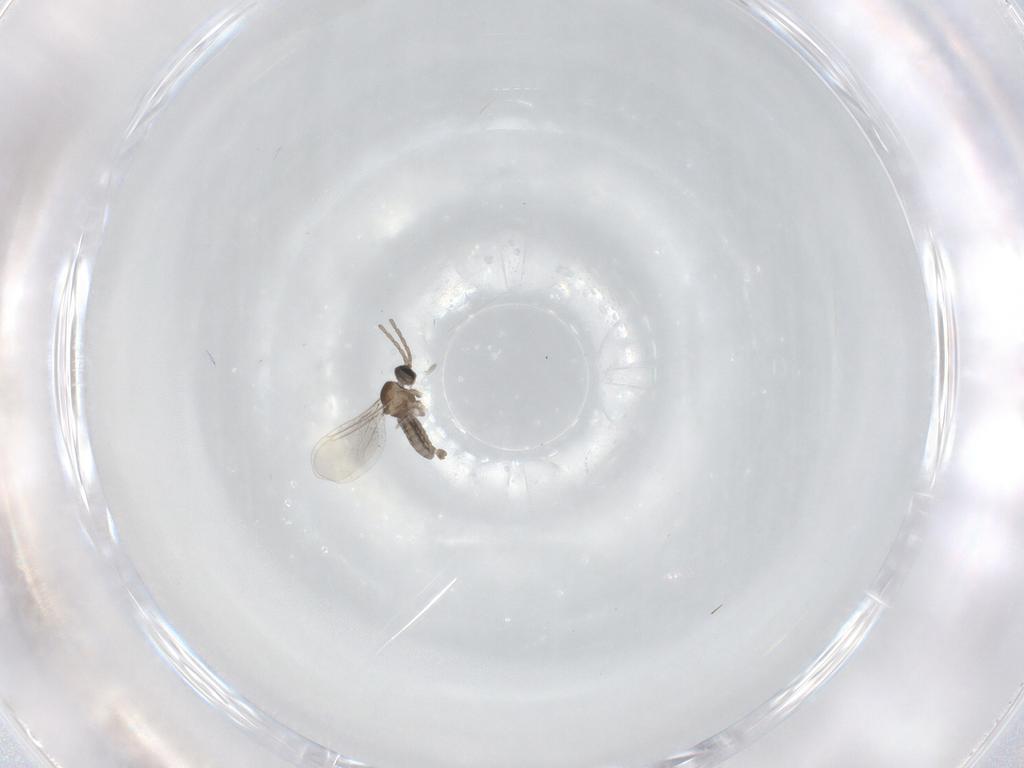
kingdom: Animalia
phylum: Arthropoda
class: Insecta
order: Diptera
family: Cecidomyiidae
